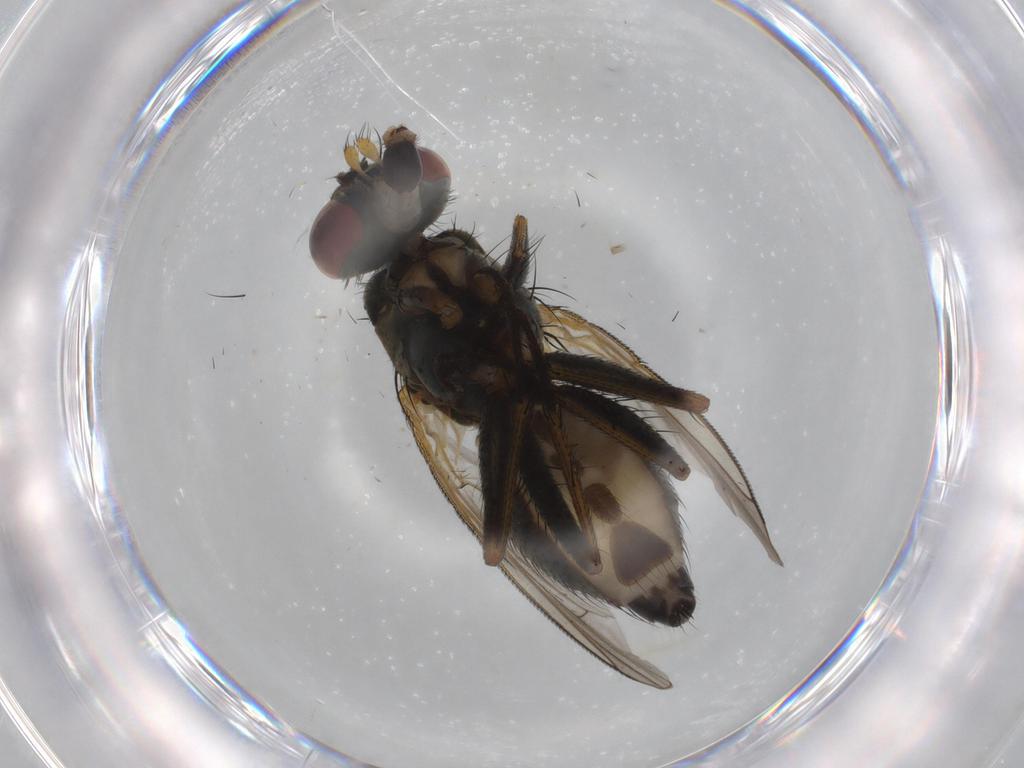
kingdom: Animalia
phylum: Arthropoda
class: Insecta
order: Diptera
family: Muscidae
